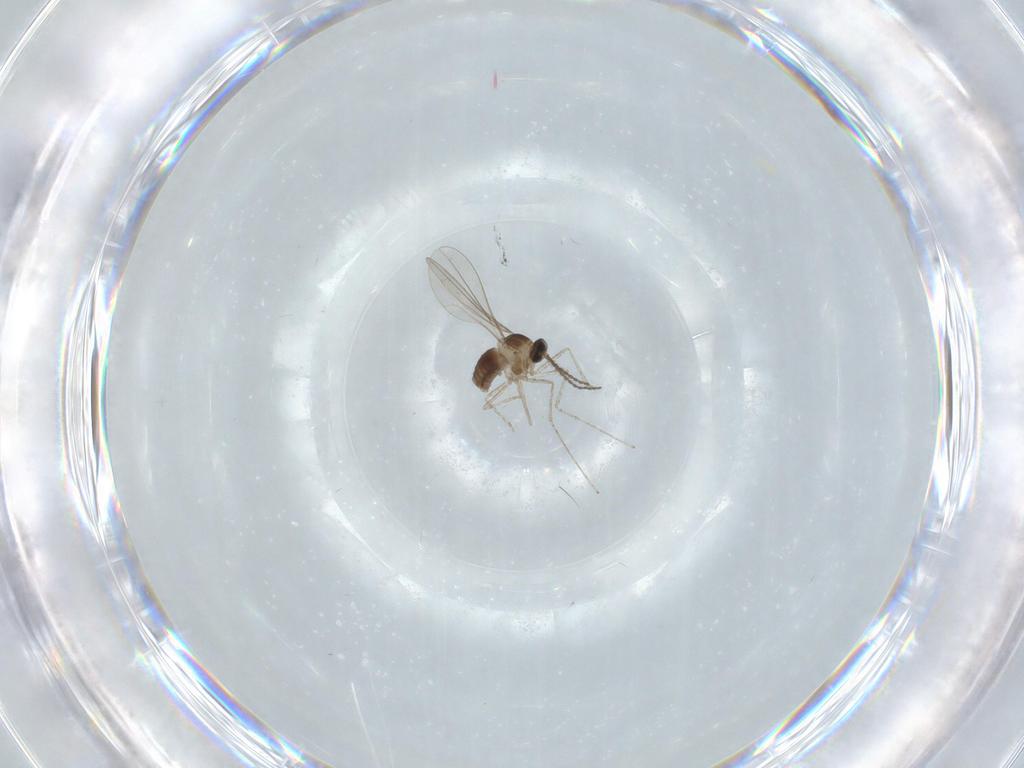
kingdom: Animalia
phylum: Arthropoda
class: Insecta
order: Diptera
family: Cecidomyiidae
